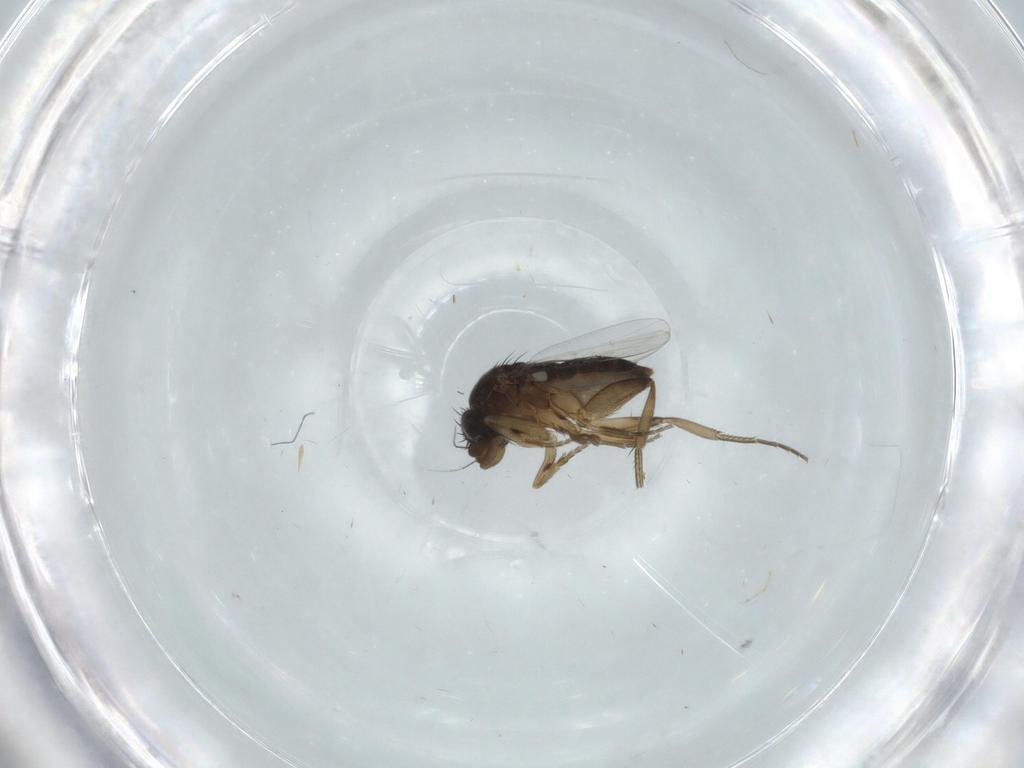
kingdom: Animalia
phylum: Arthropoda
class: Insecta
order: Diptera
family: Phoridae
